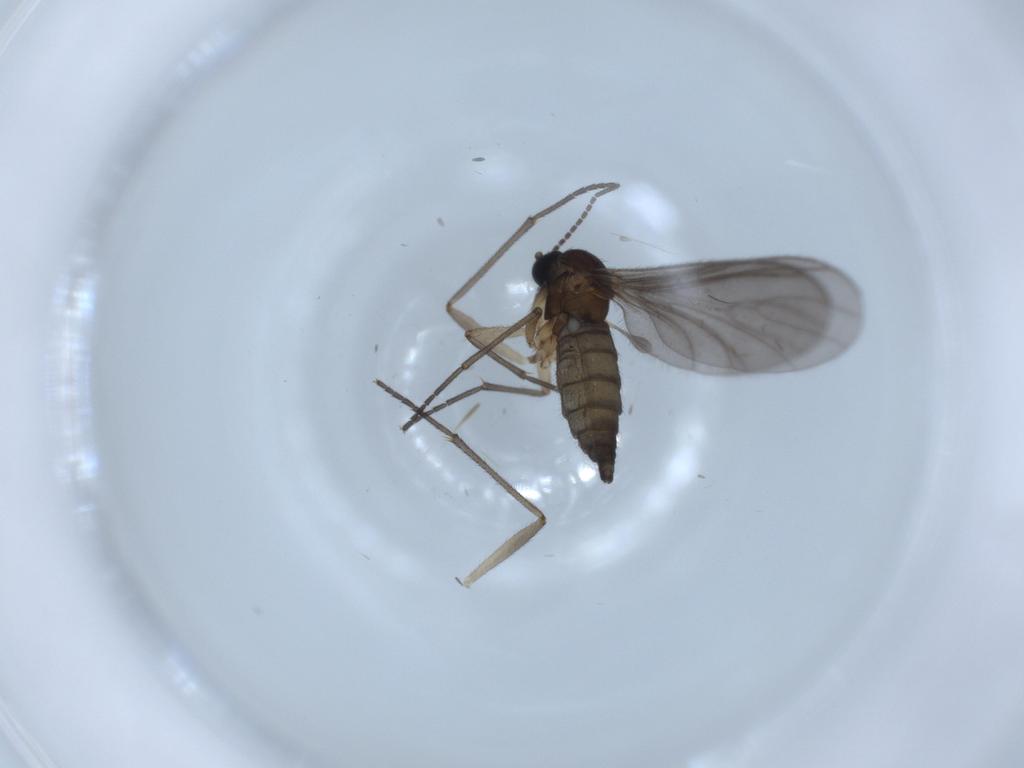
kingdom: Animalia
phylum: Arthropoda
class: Insecta
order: Diptera
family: Sciaridae
